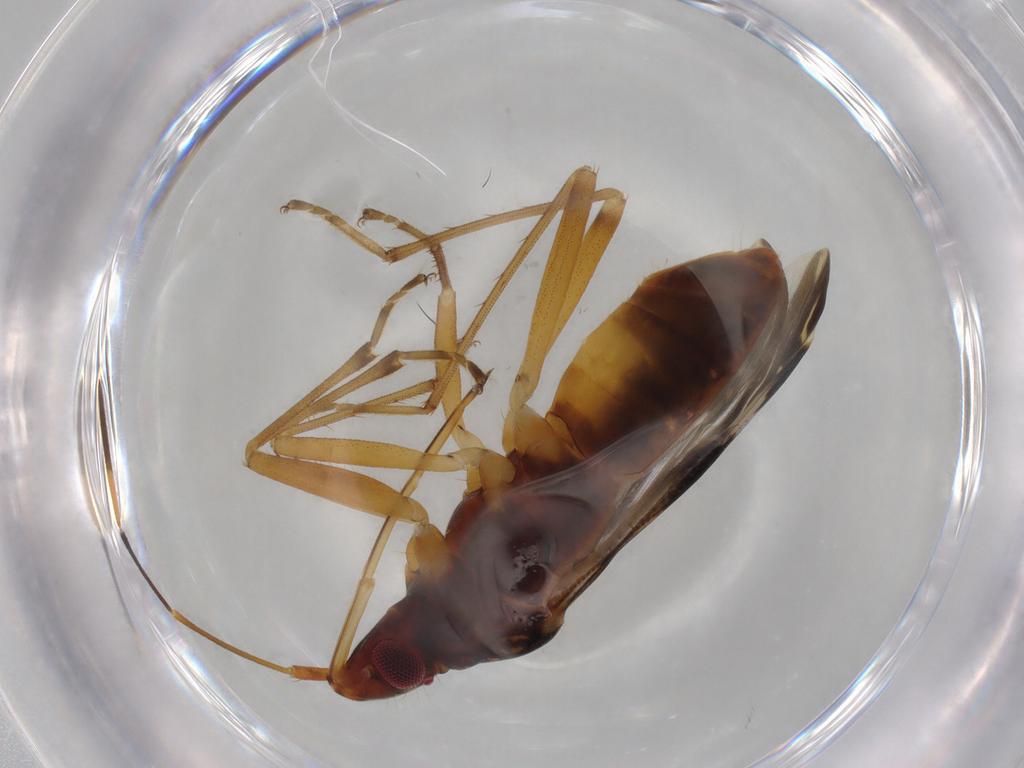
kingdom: Animalia
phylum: Arthropoda
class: Insecta
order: Hemiptera
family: Rhyparochromidae
